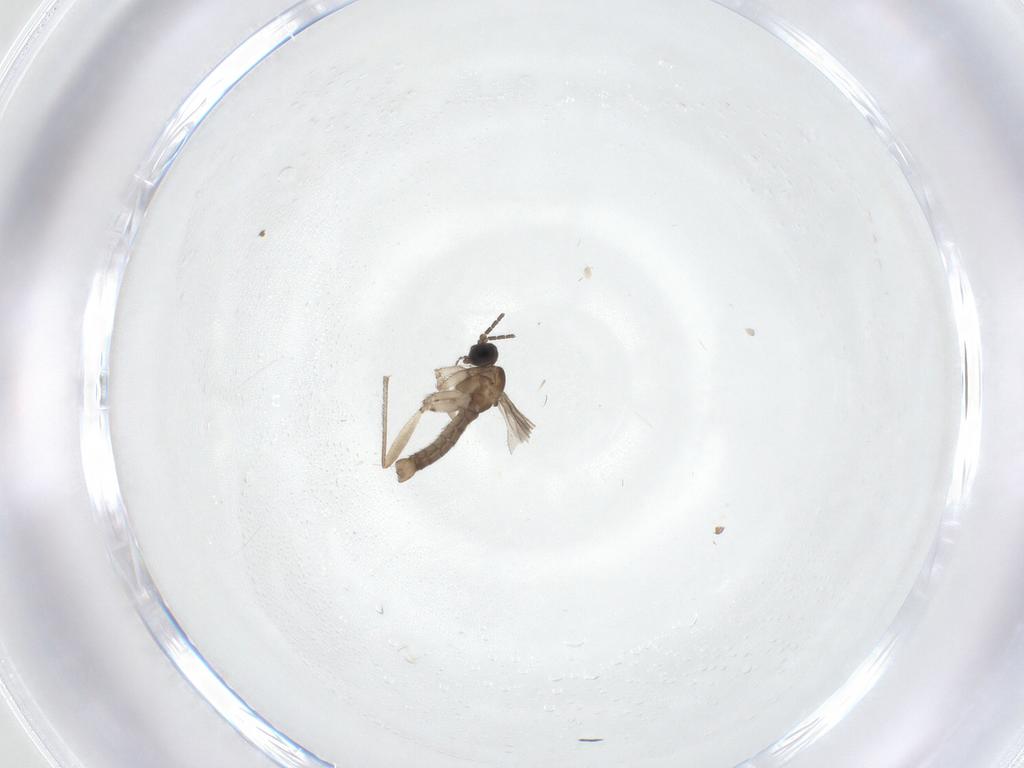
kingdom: Animalia
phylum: Arthropoda
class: Insecta
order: Diptera
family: Sciaridae
